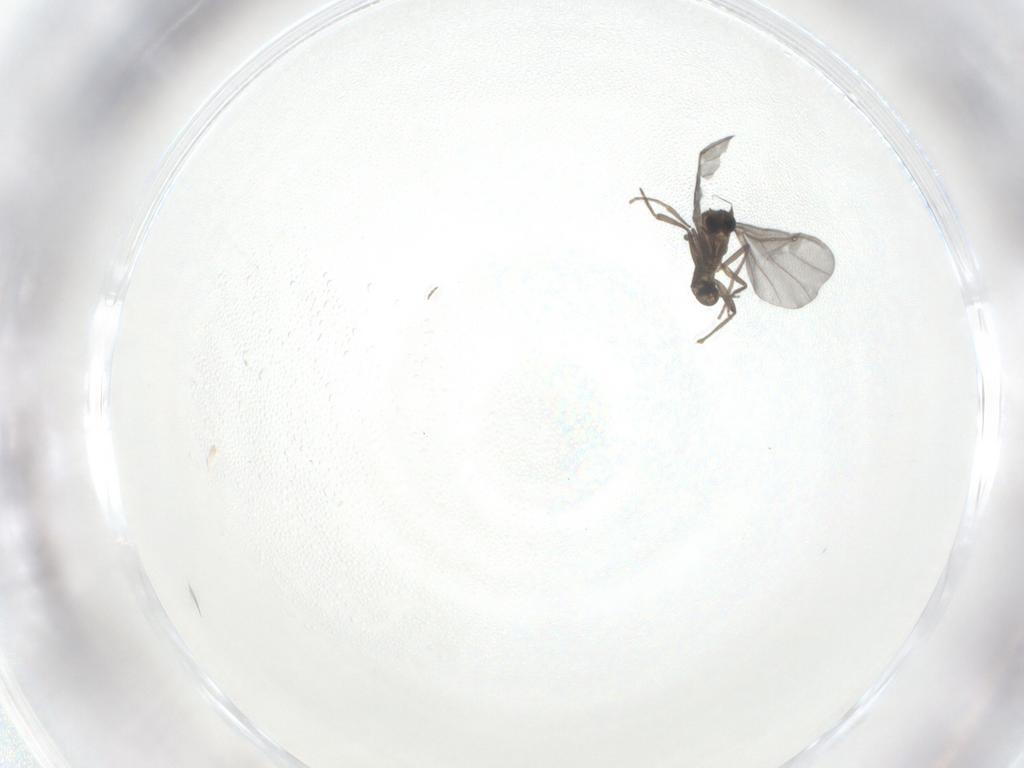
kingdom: Animalia
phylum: Arthropoda
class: Insecta
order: Diptera
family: Phoridae
